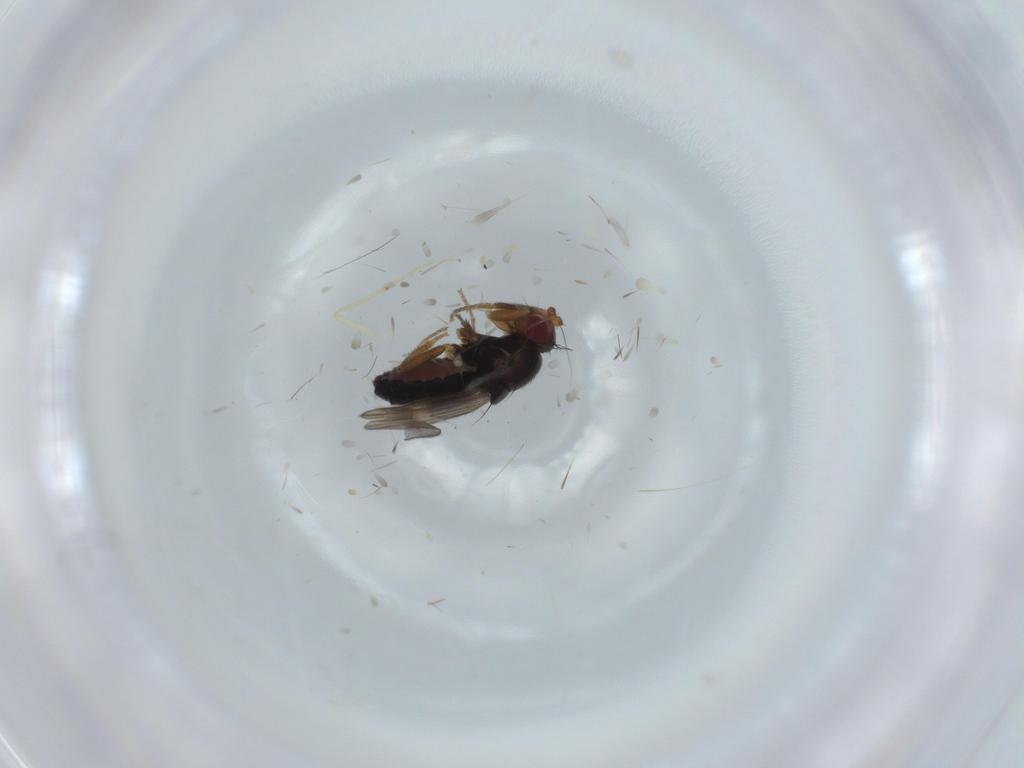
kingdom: Animalia
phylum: Arthropoda
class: Insecta
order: Diptera
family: Sphaeroceridae
